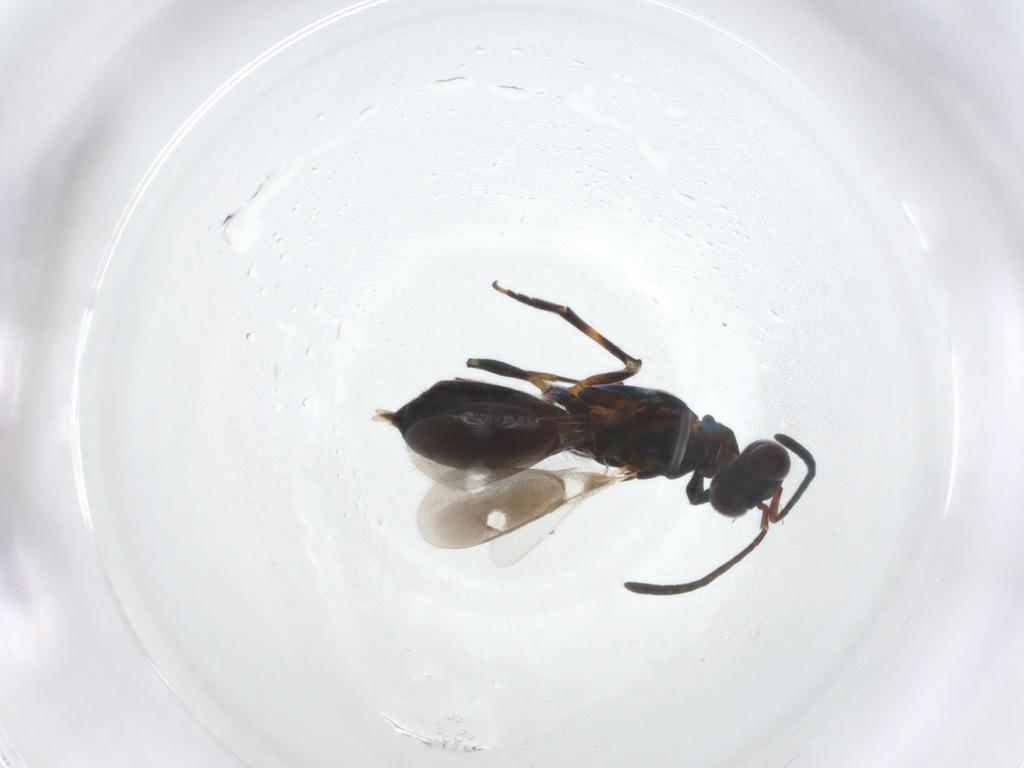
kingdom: Animalia
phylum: Arthropoda
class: Insecta
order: Hymenoptera
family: Eupelmidae
